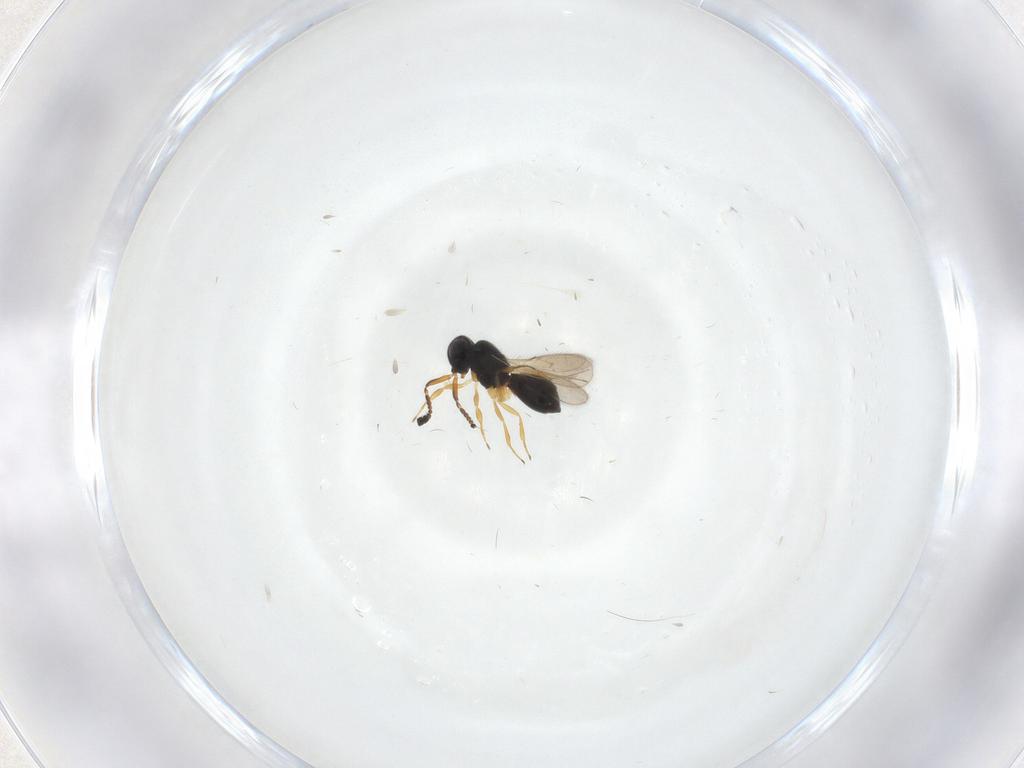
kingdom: Animalia
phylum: Arthropoda
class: Insecta
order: Hymenoptera
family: Scelionidae
